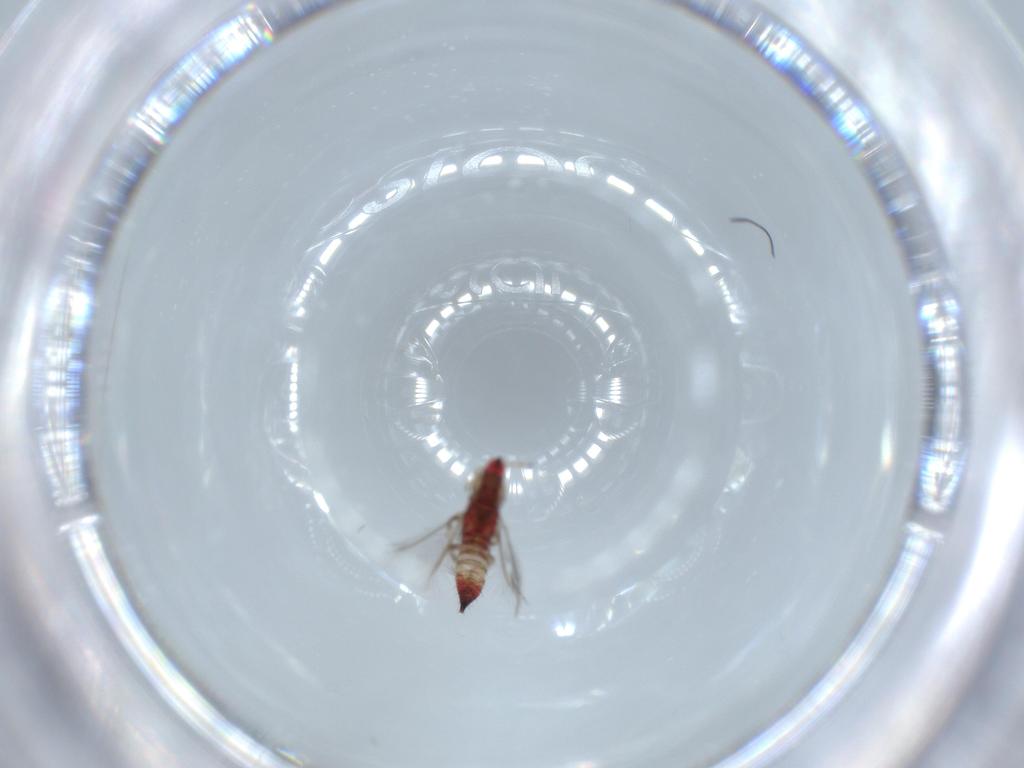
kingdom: Animalia
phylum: Arthropoda
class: Insecta
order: Thysanoptera
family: Phlaeothripidae
